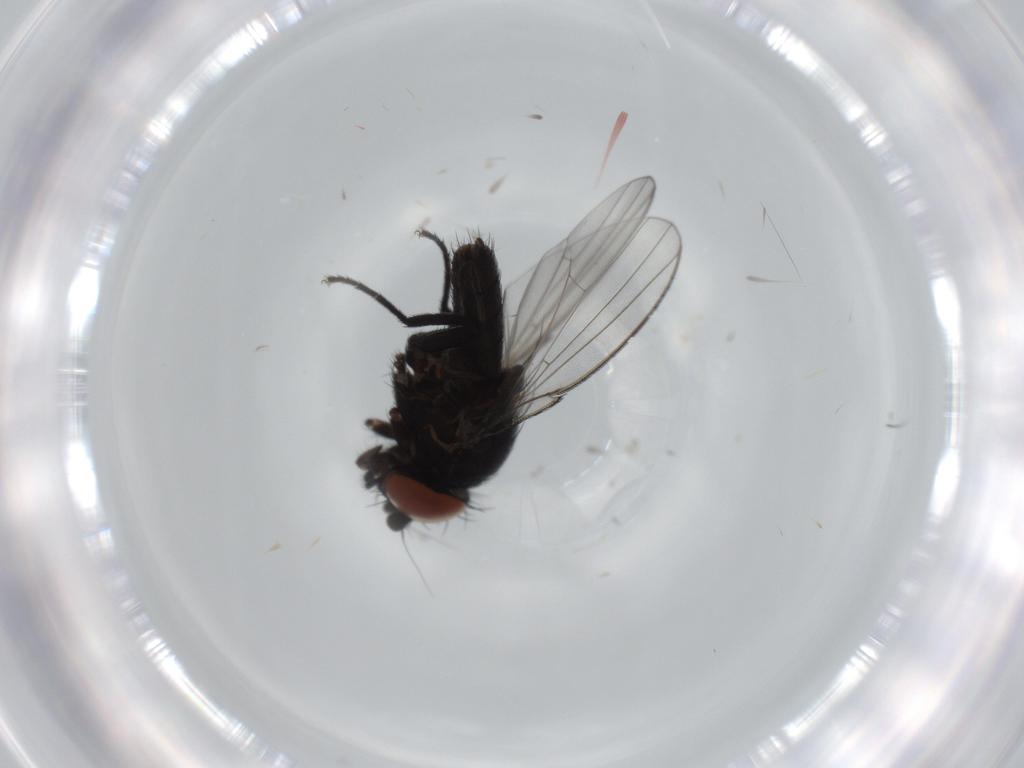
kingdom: Animalia
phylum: Arthropoda
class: Insecta
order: Diptera
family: Milichiidae
